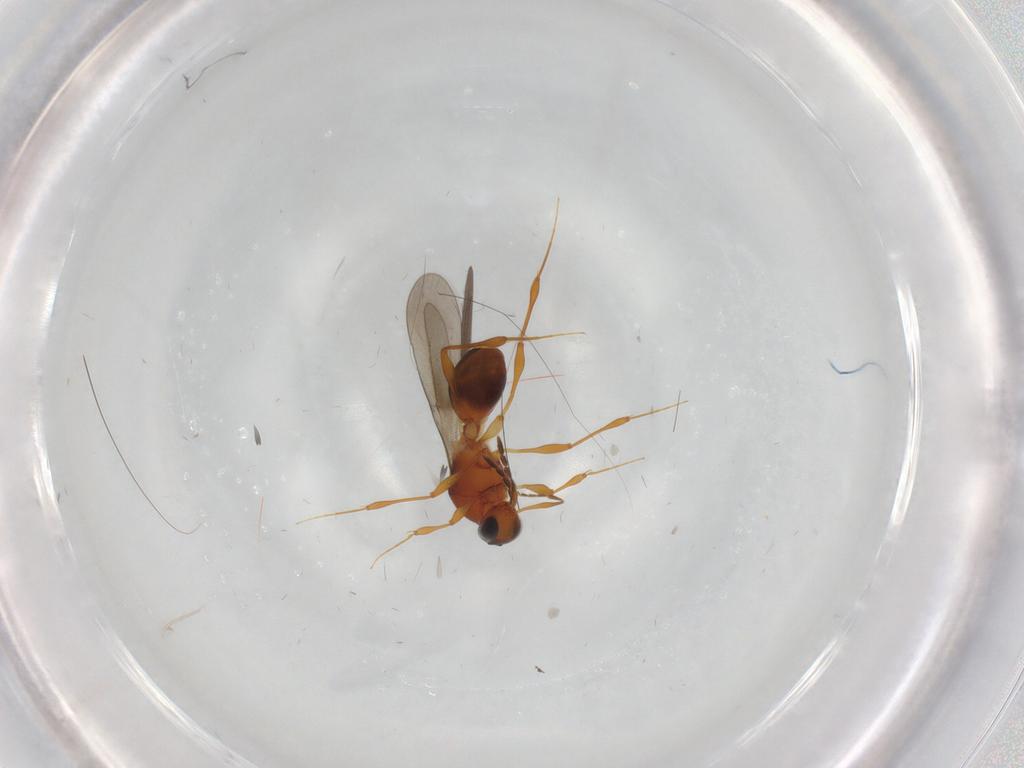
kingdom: Animalia
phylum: Arthropoda
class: Insecta
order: Hymenoptera
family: Platygastridae
